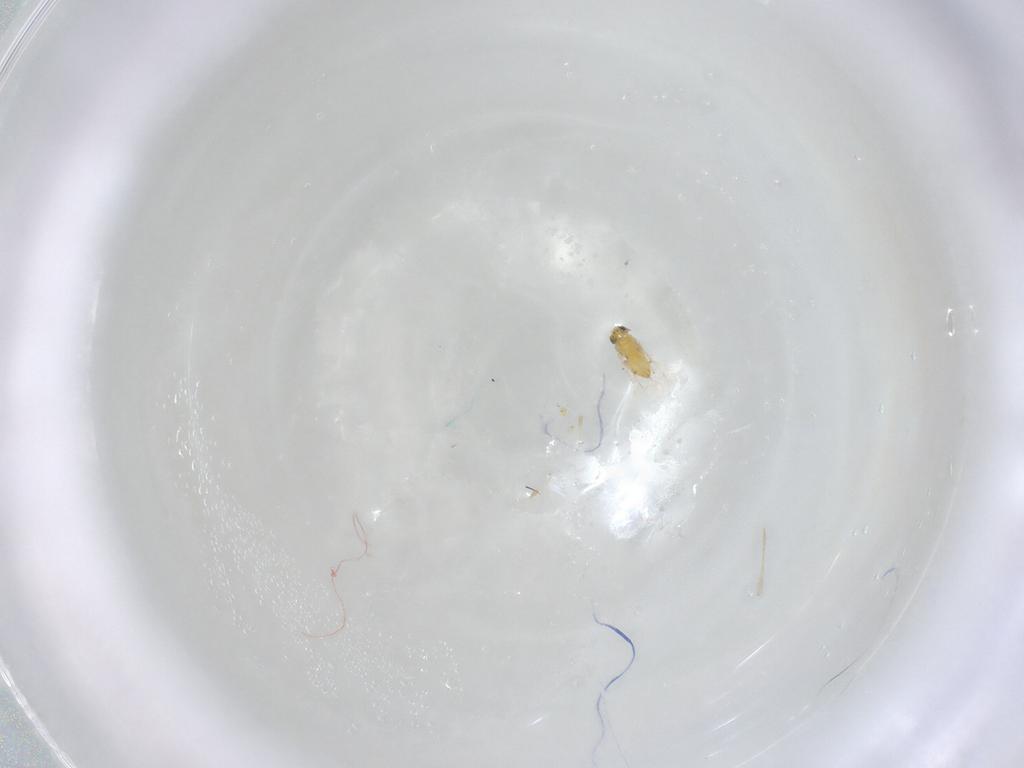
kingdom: Animalia
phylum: Arthropoda
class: Insecta
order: Hymenoptera
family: Trichogrammatidae
